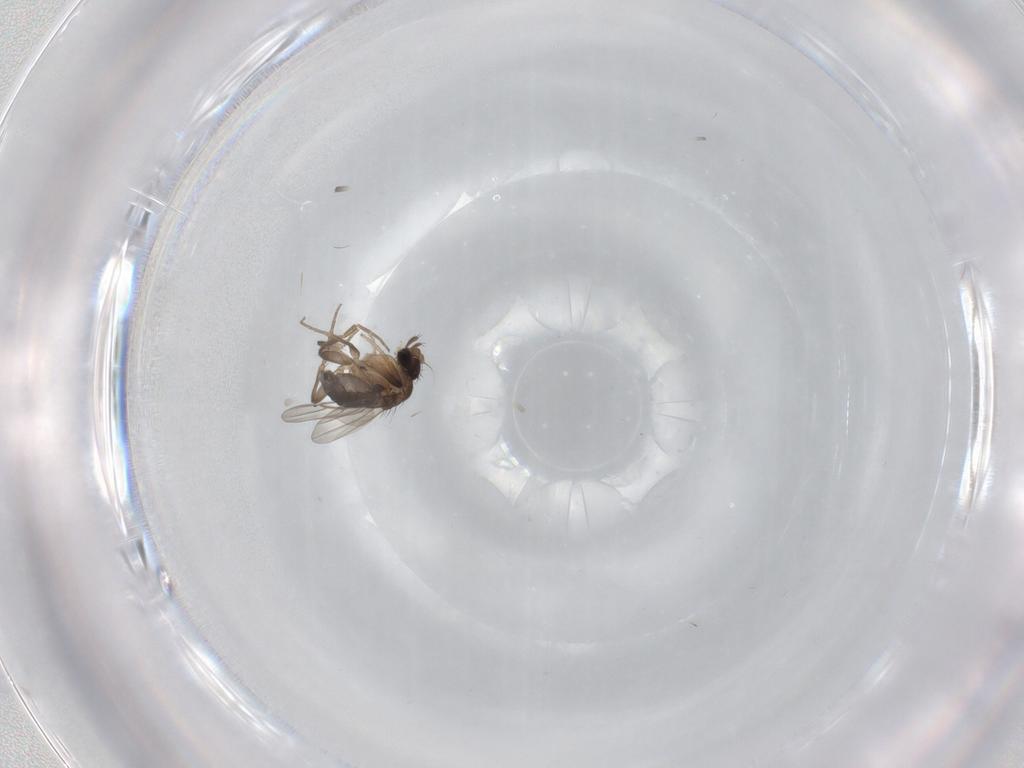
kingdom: Animalia
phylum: Arthropoda
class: Insecta
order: Diptera
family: Phoridae
